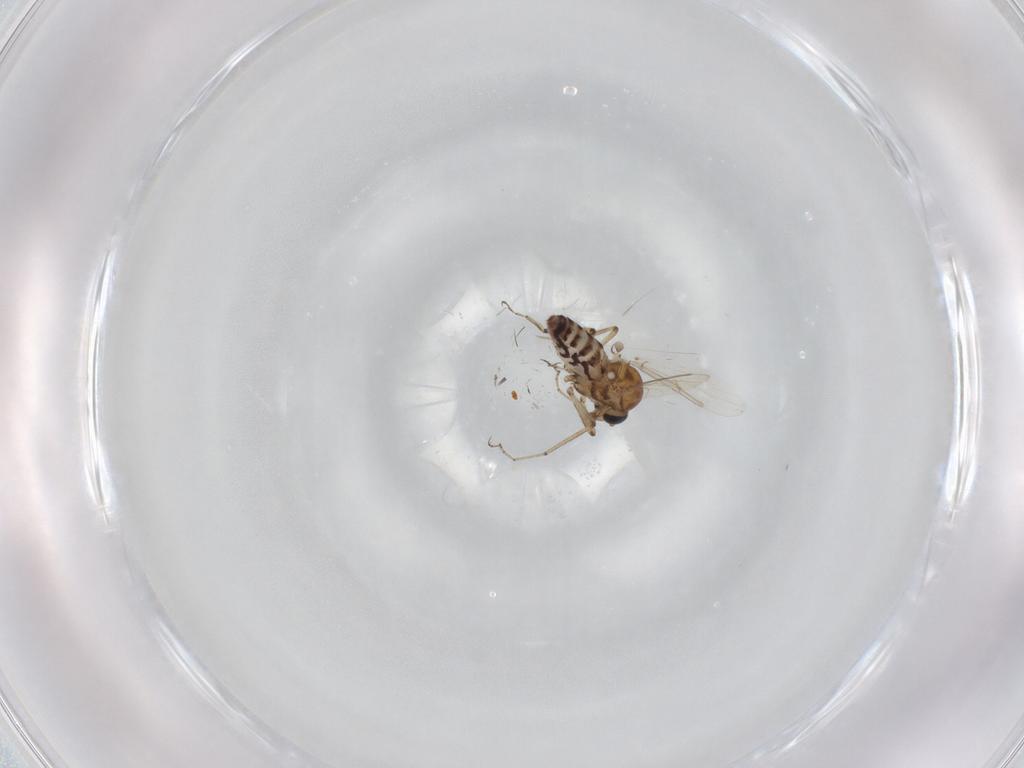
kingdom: Animalia
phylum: Arthropoda
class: Insecta
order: Diptera
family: Ceratopogonidae
